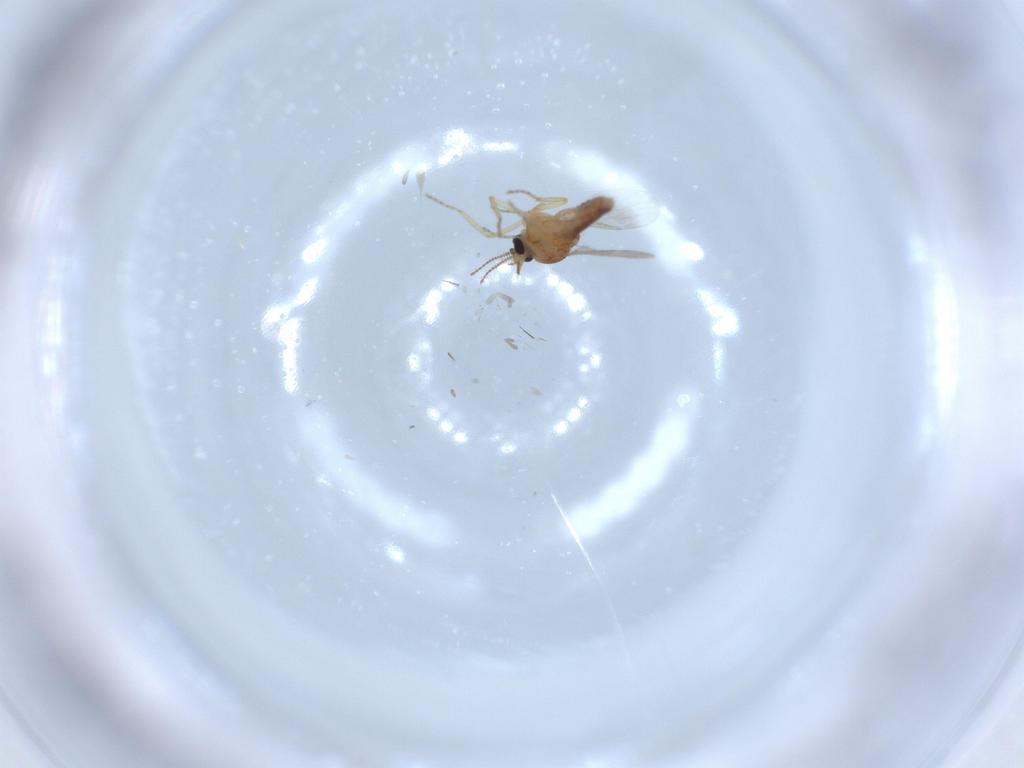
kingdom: Animalia
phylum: Arthropoda
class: Insecta
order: Diptera
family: Ceratopogonidae
